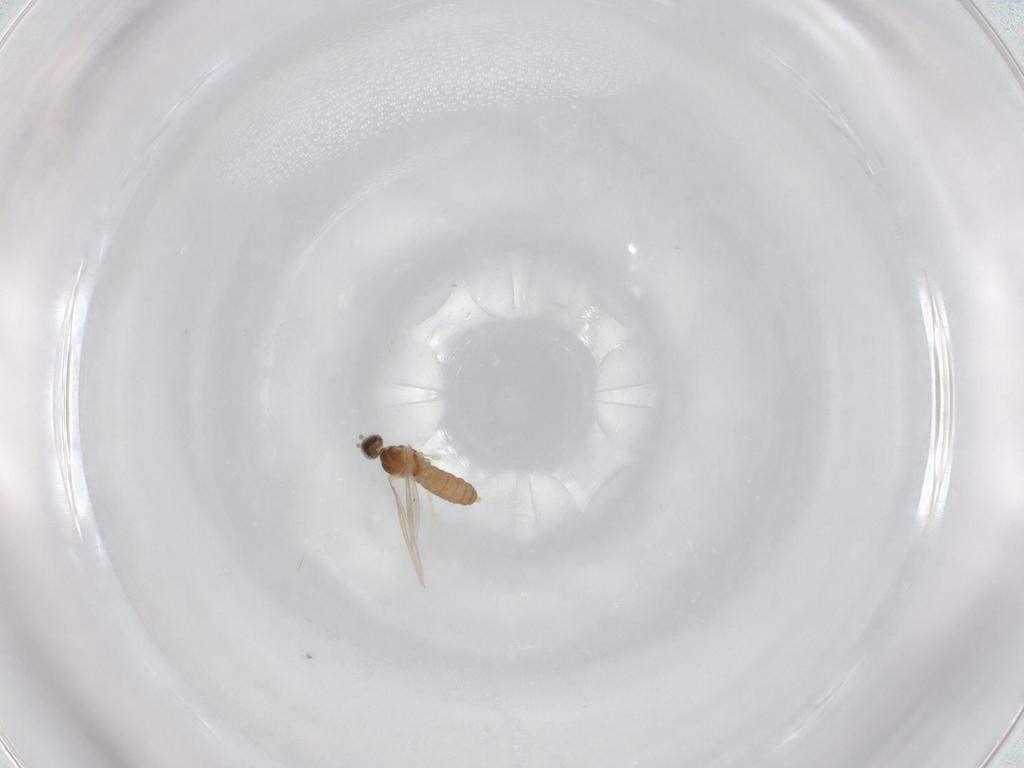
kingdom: Animalia
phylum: Arthropoda
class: Insecta
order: Diptera
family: Cecidomyiidae
